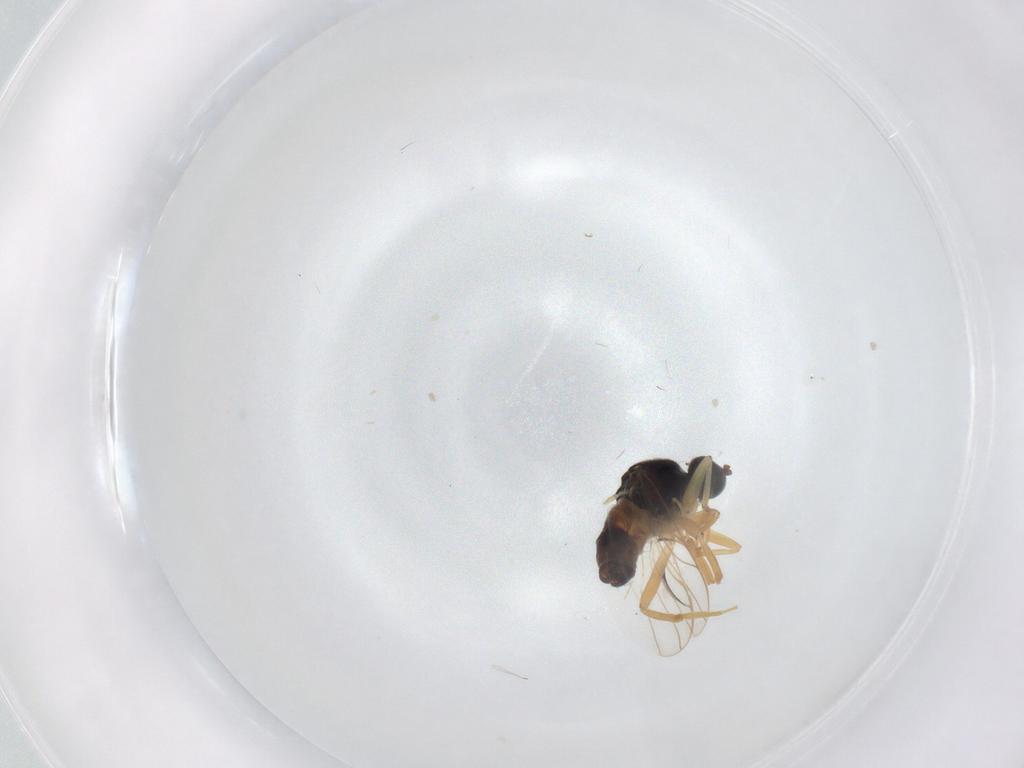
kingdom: Animalia
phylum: Arthropoda
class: Insecta
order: Diptera
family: Hybotidae
